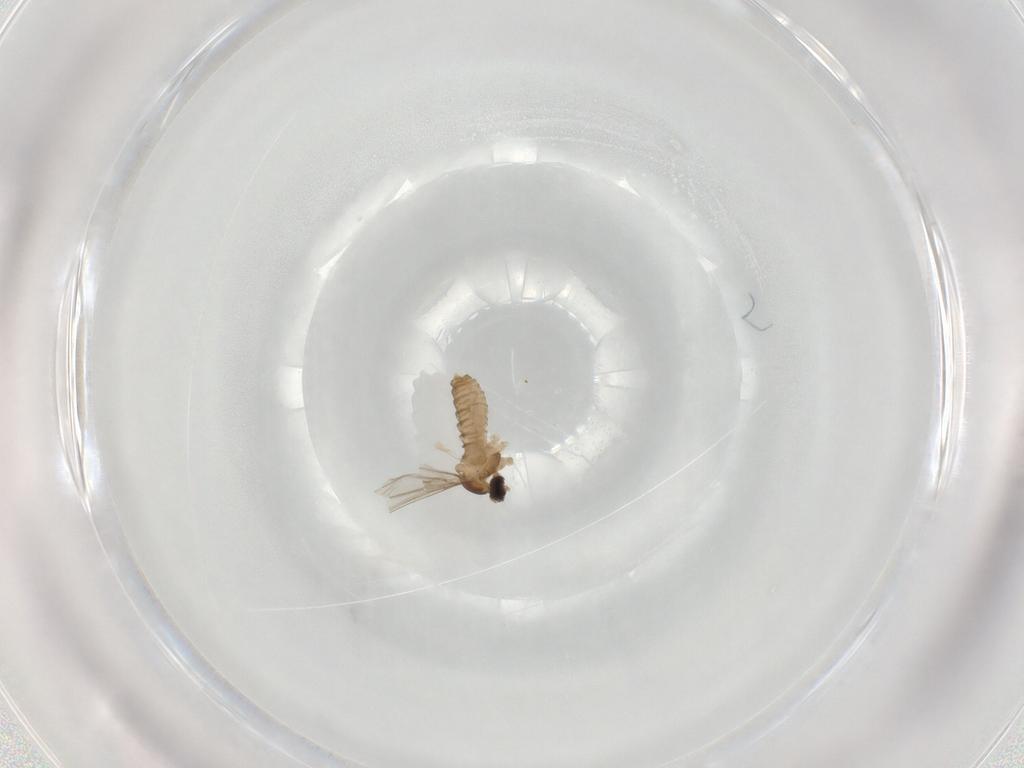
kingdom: Animalia
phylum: Arthropoda
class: Insecta
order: Diptera
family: Cecidomyiidae
